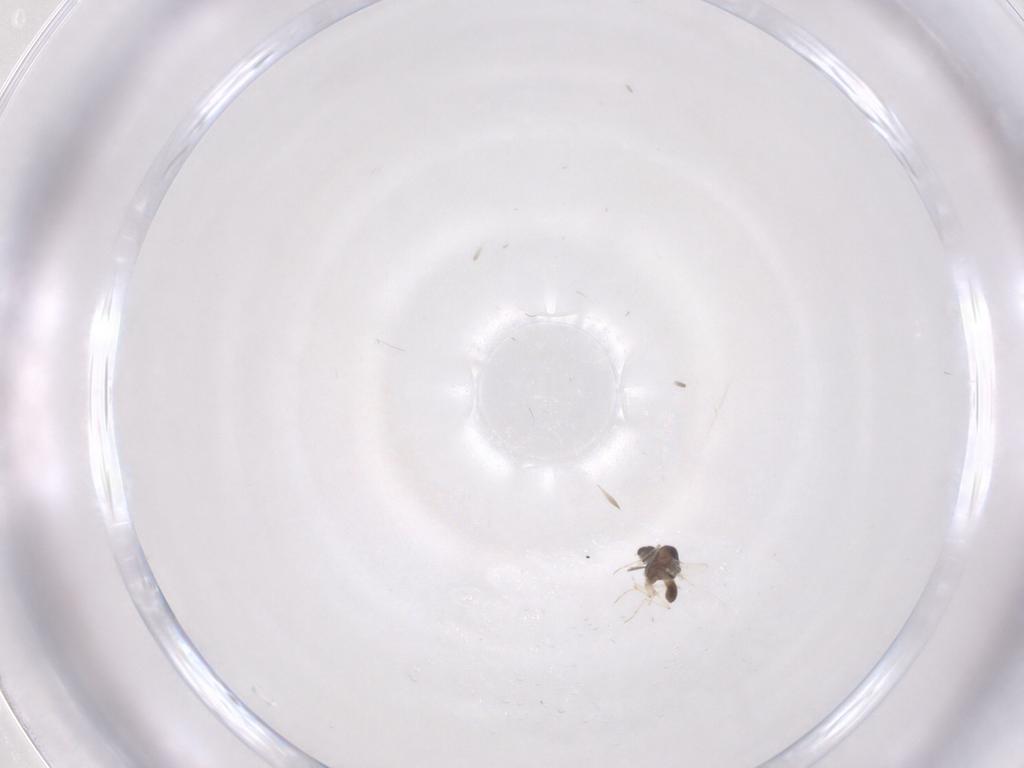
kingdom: Animalia
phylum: Arthropoda
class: Insecta
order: Diptera
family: Chironomidae
